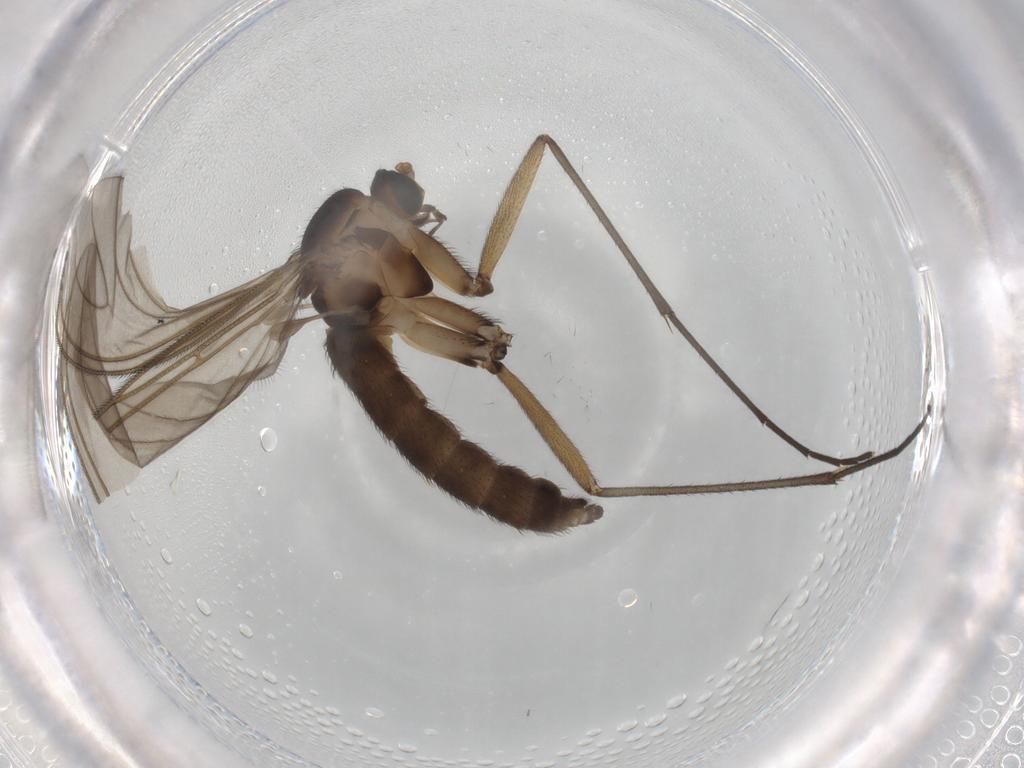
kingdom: Animalia
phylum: Arthropoda
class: Insecta
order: Diptera
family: Sciaridae
